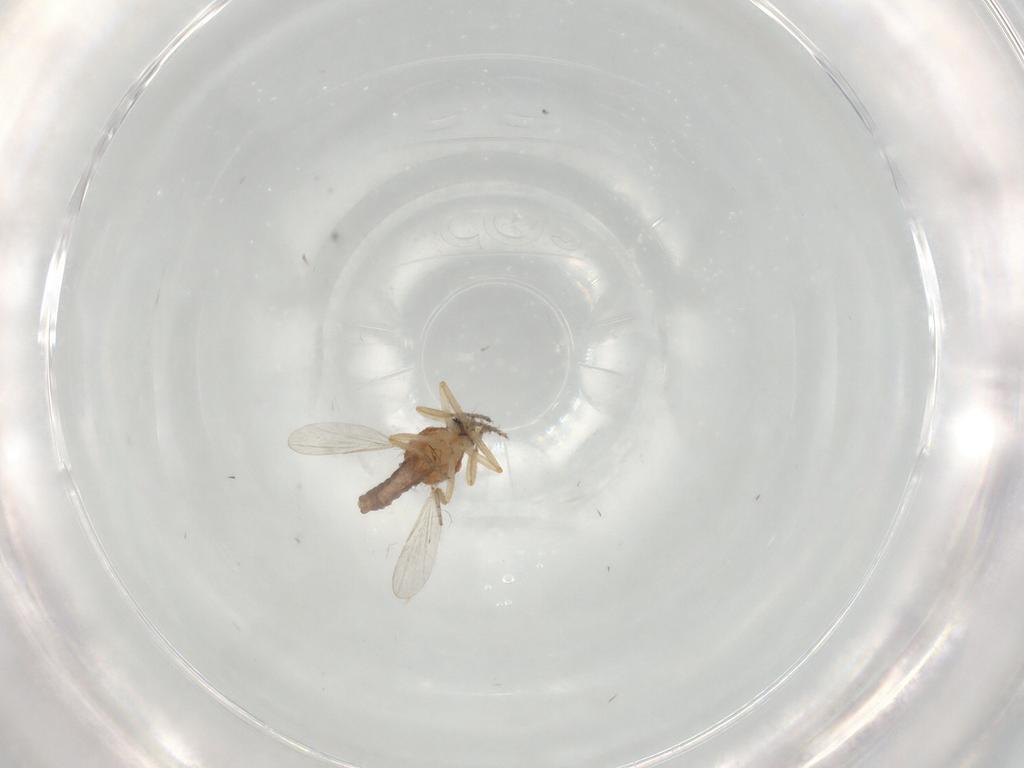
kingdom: Animalia
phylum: Arthropoda
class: Insecta
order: Diptera
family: Ceratopogonidae
